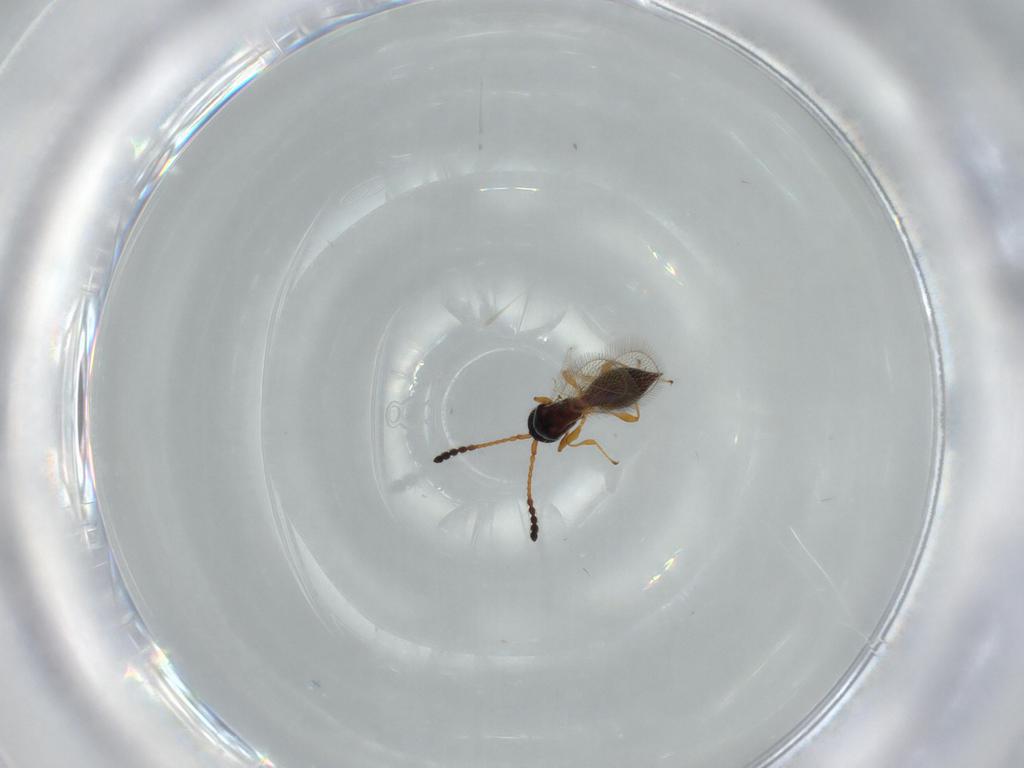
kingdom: Animalia
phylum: Arthropoda
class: Insecta
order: Hymenoptera
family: Diapriidae
